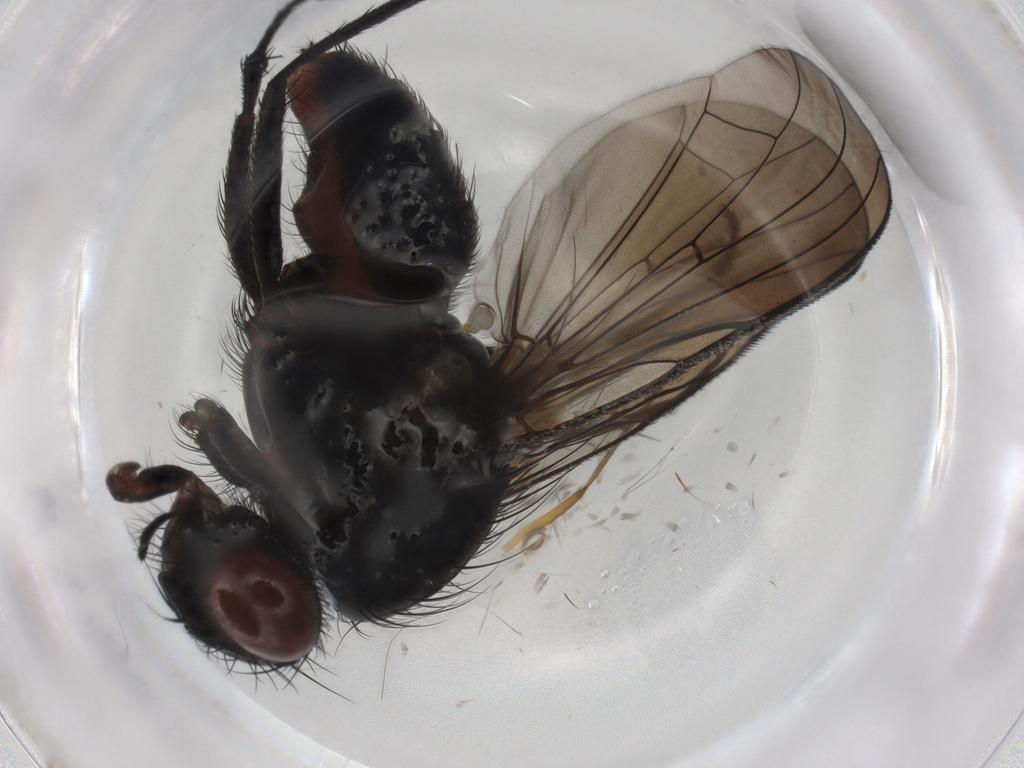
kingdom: Animalia
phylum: Arthropoda
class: Insecta
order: Diptera
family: Anthomyiidae
